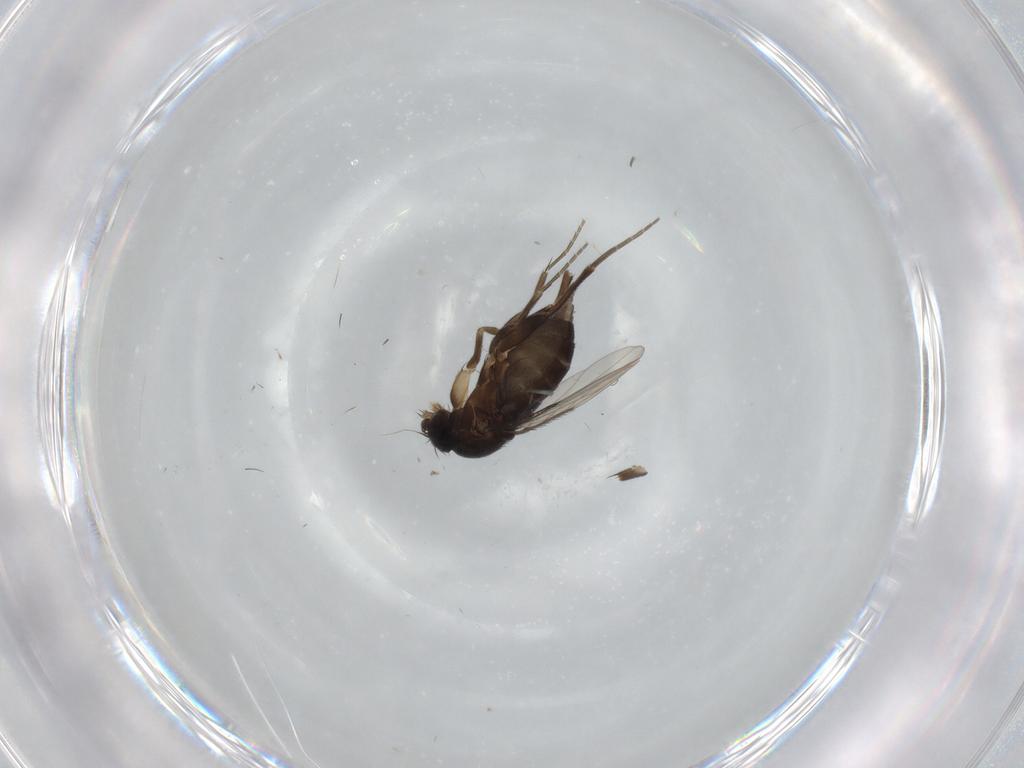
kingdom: Animalia
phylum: Arthropoda
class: Insecta
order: Diptera
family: Phoridae
